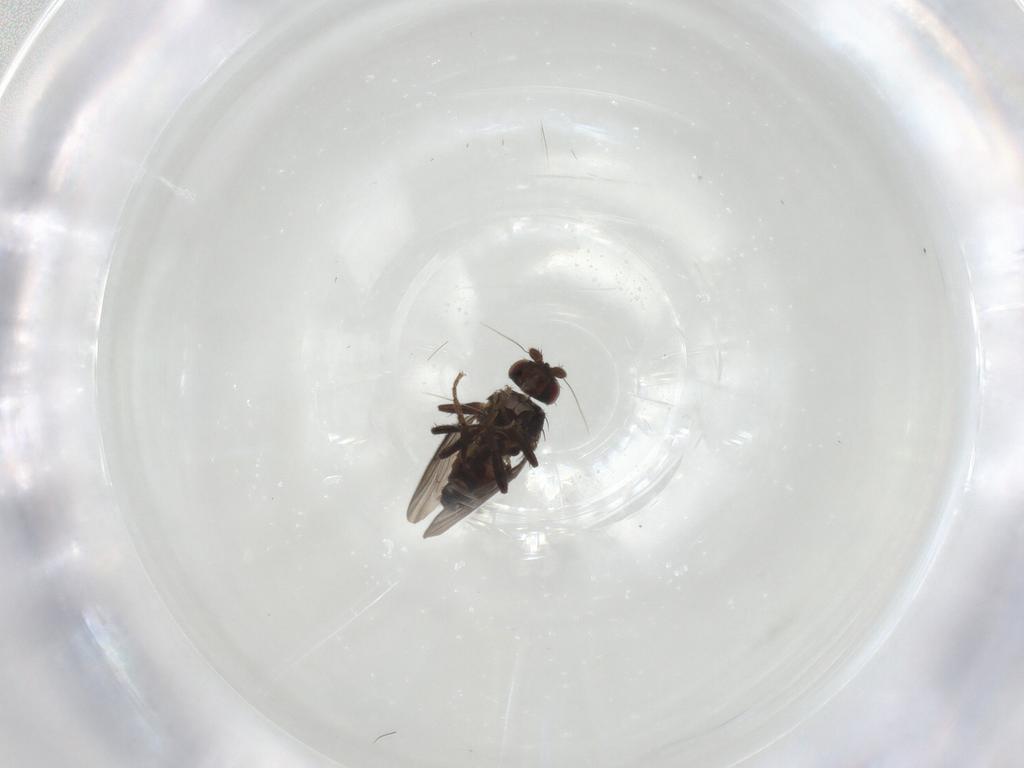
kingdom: Animalia
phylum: Arthropoda
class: Insecta
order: Diptera
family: Sphaeroceridae
